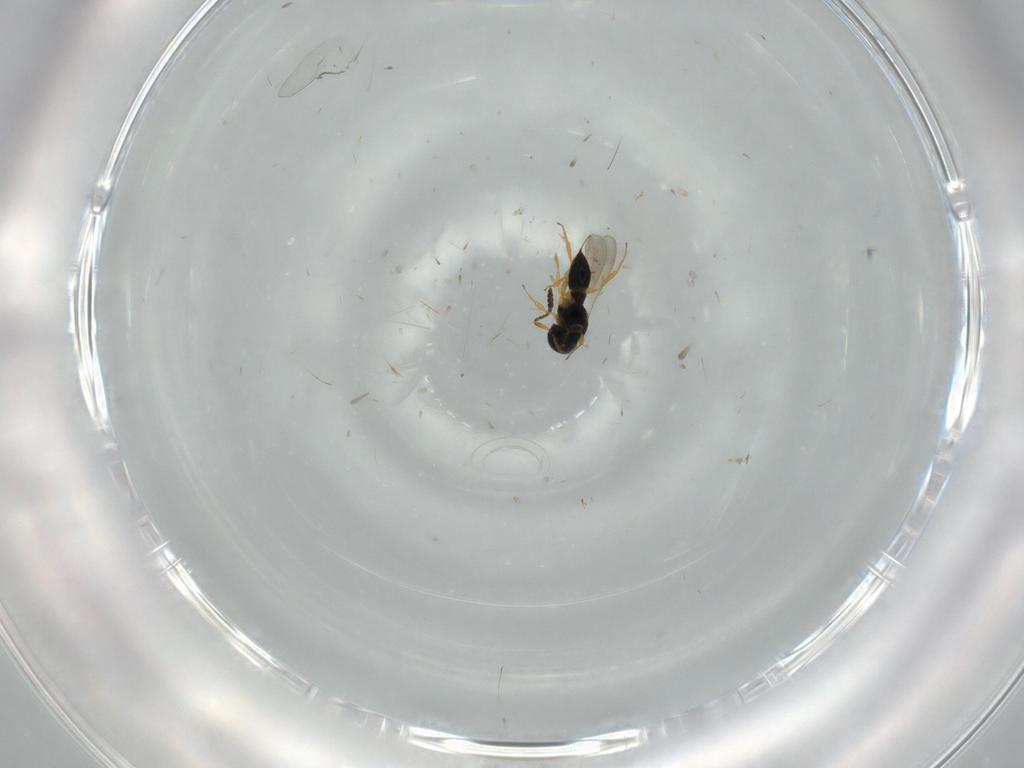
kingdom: Animalia
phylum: Arthropoda
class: Insecta
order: Hymenoptera
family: Scelionidae
